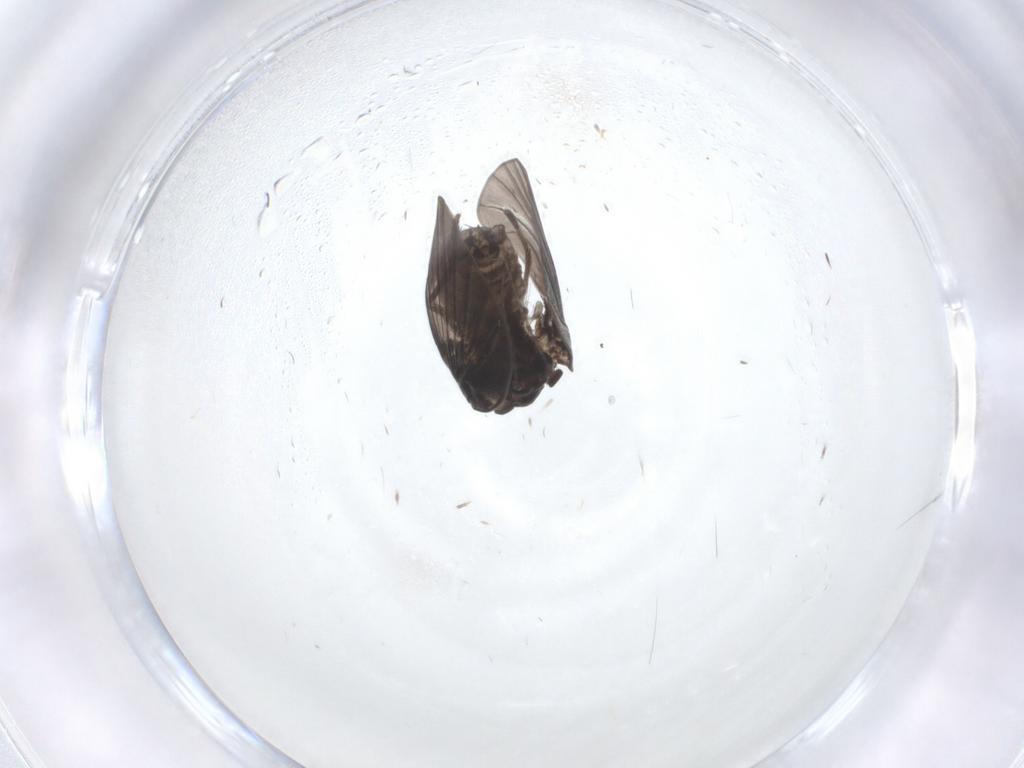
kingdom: Animalia
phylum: Arthropoda
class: Insecta
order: Diptera
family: Psychodidae
